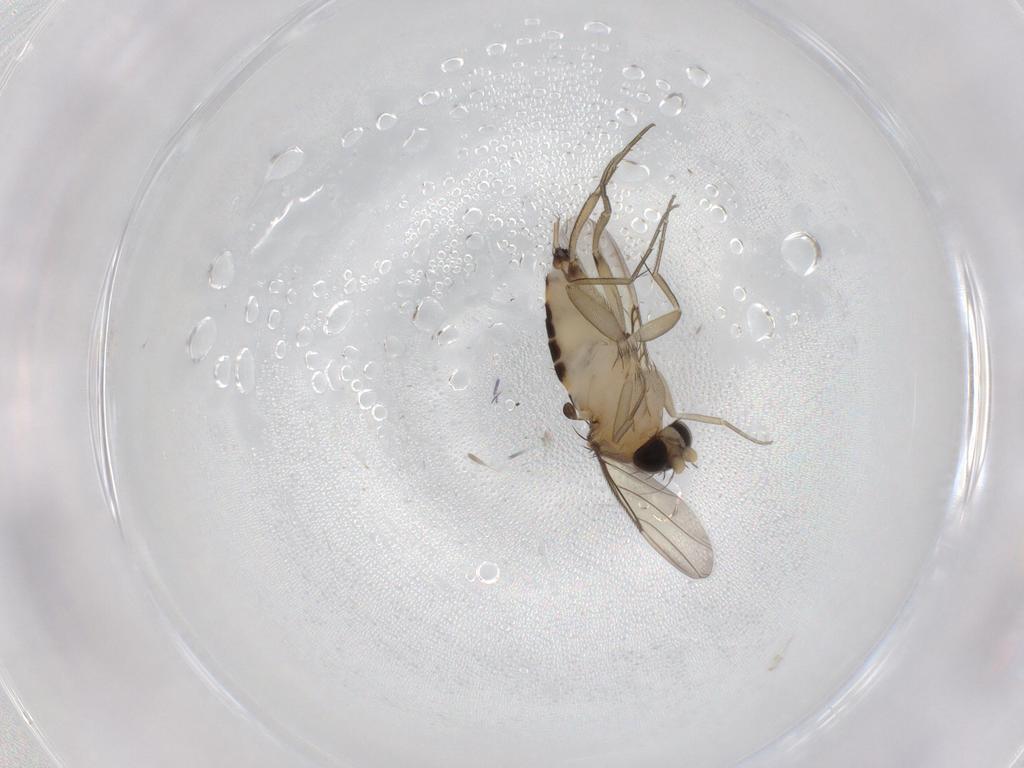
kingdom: Animalia
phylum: Arthropoda
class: Insecta
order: Diptera
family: Phoridae
